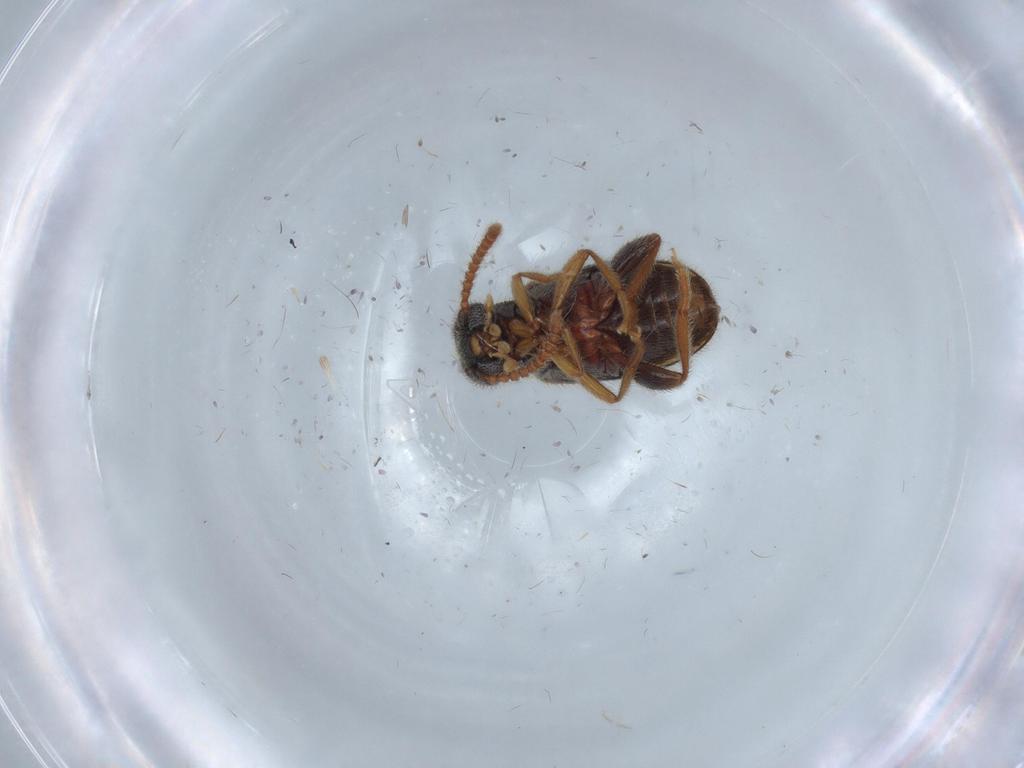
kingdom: Animalia
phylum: Arthropoda
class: Insecta
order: Coleoptera
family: Aderidae
